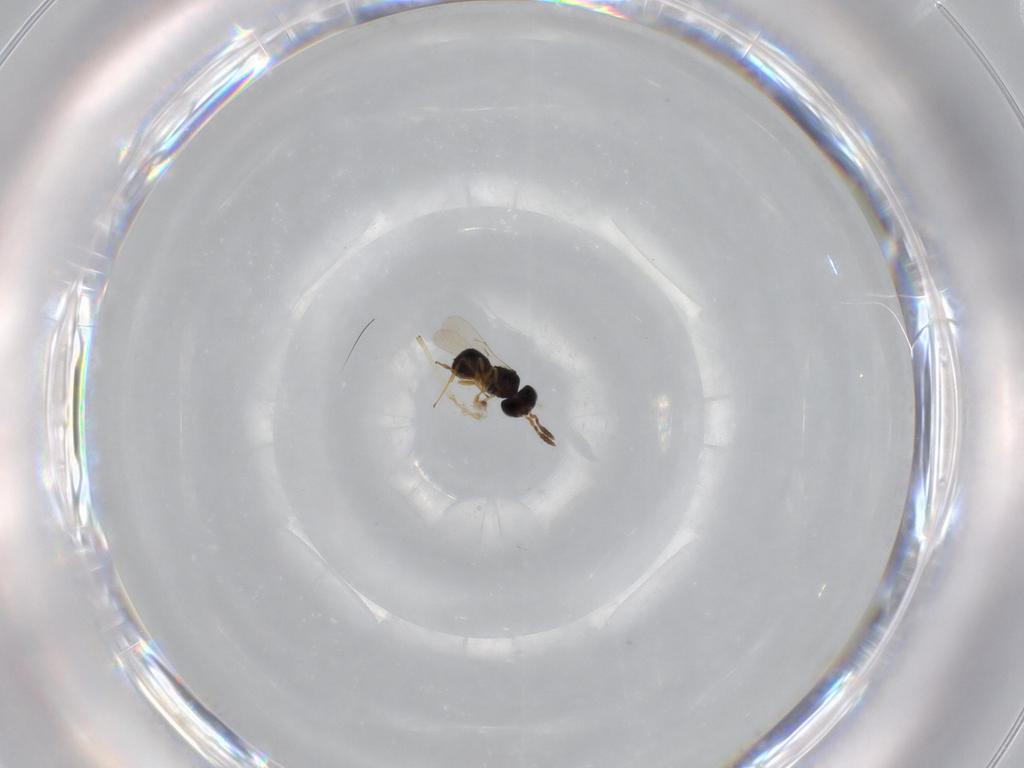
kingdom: Animalia
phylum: Arthropoda
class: Insecta
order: Hymenoptera
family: Scelionidae
